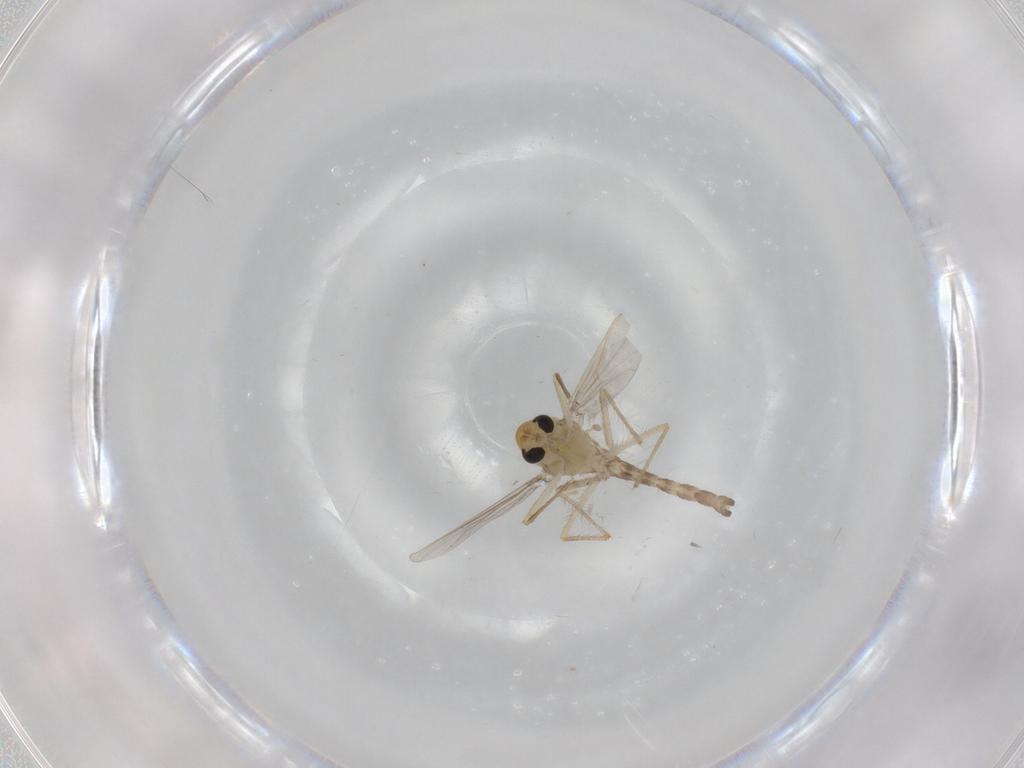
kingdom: Animalia
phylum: Arthropoda
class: Insecta
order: Diptera
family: Chironomidae
